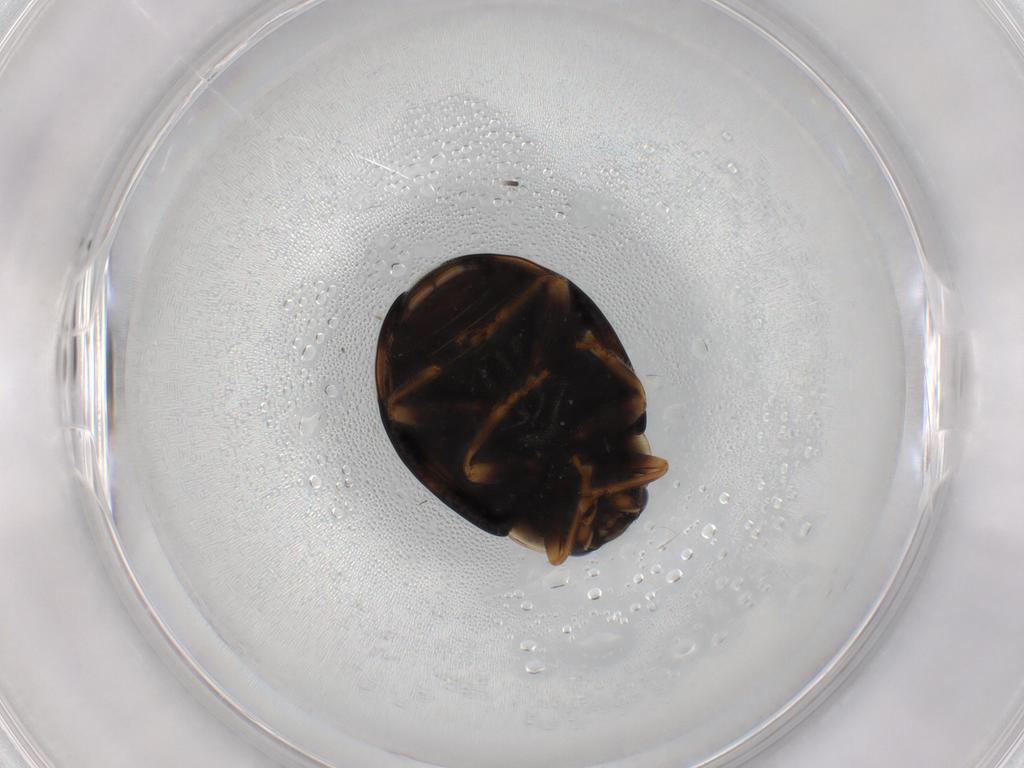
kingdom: Animalia
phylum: Arthropoda
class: Insecta
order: Coleoptera
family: Coccinellidae
